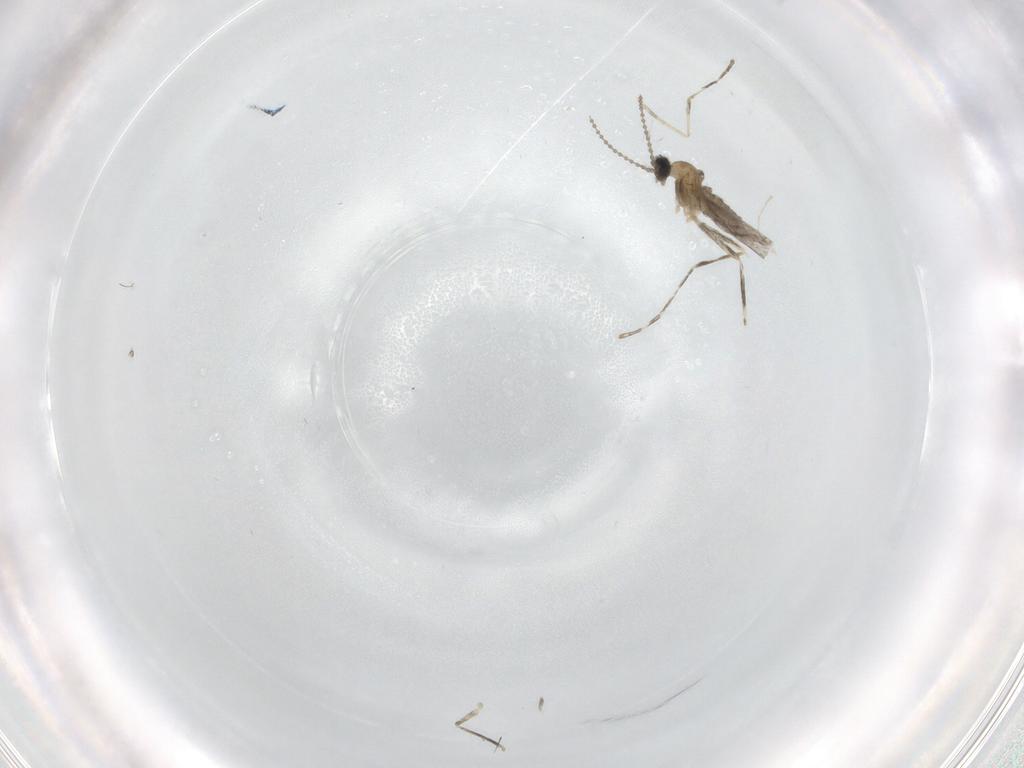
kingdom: Animalia
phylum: Arthropoda
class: Insecta
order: Diptera
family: Cecidomyiidae
